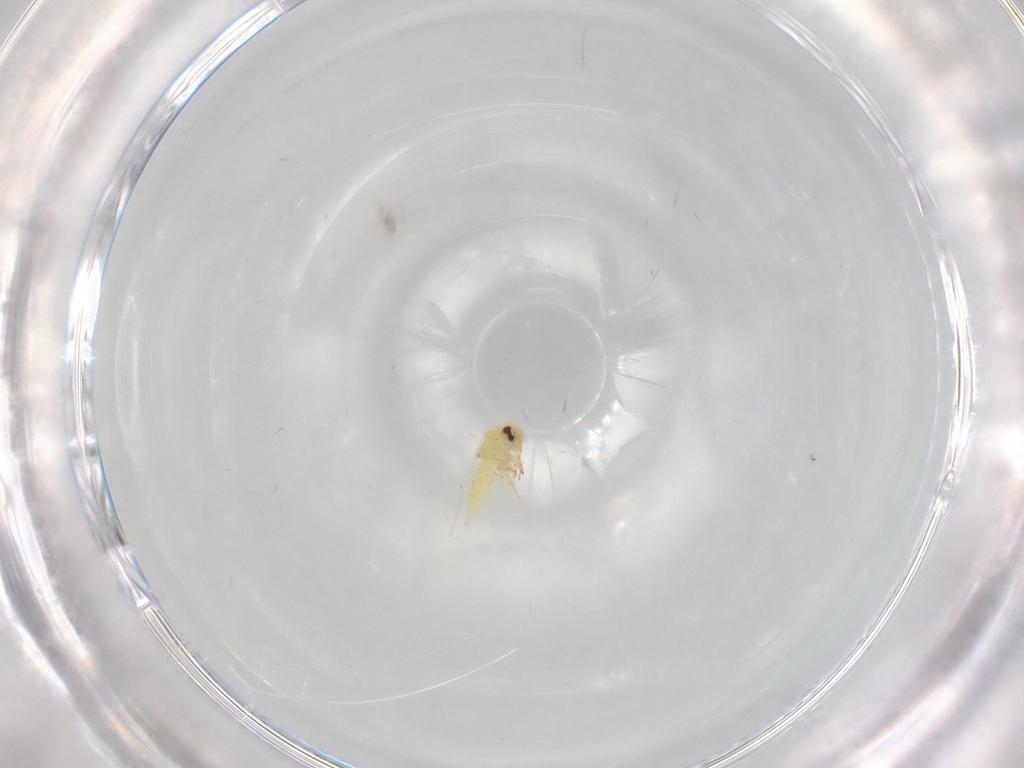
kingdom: Animalia
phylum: Arthropoda
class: Insecta
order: Hemiptera
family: Aleyrodidae
